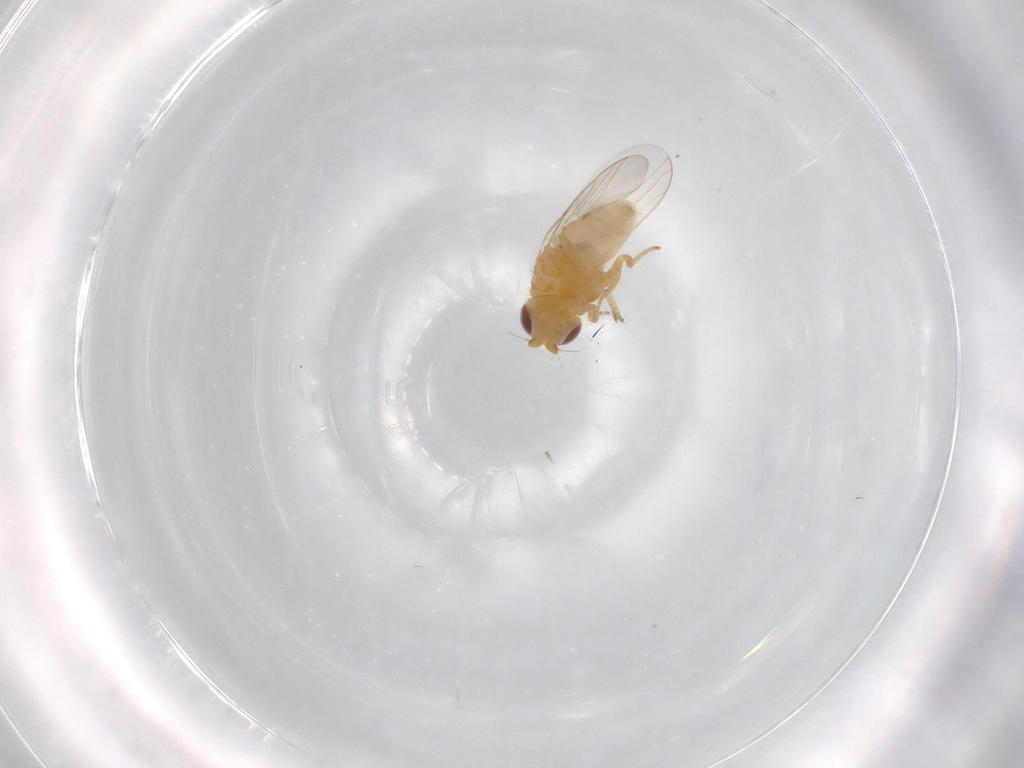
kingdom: Animalia
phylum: Arthropoda
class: Insecta
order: Diptera
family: Chloropidae
